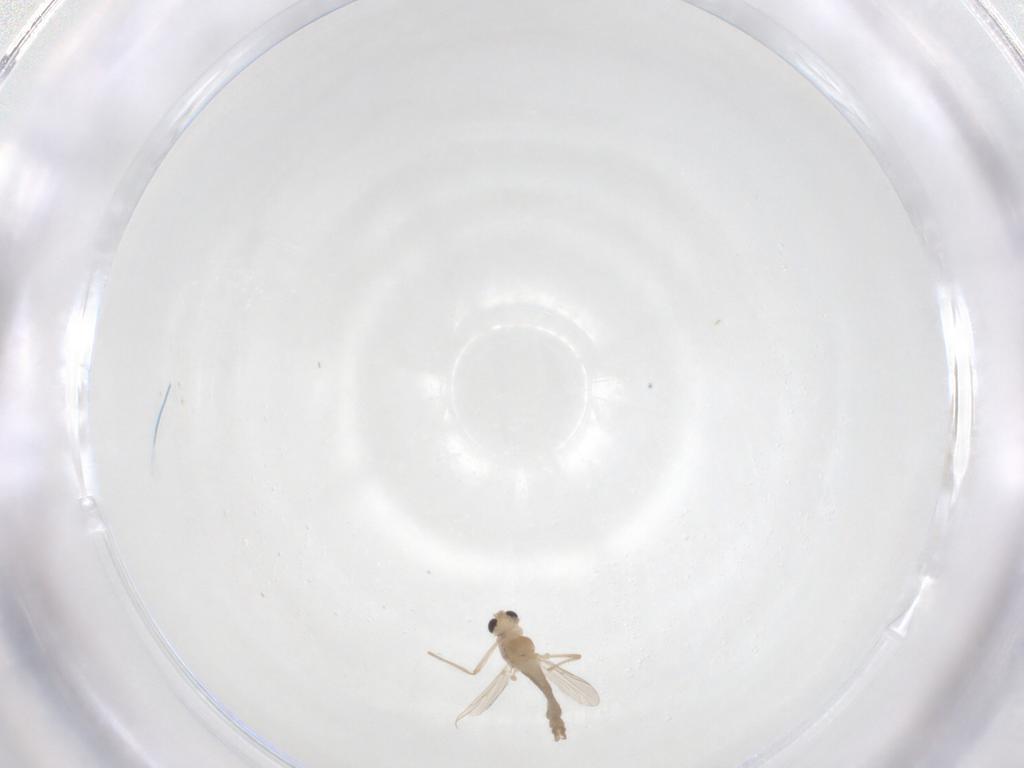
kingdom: Animalia
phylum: Arthropoda
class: Insecta
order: Diptera
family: Chironomidae
